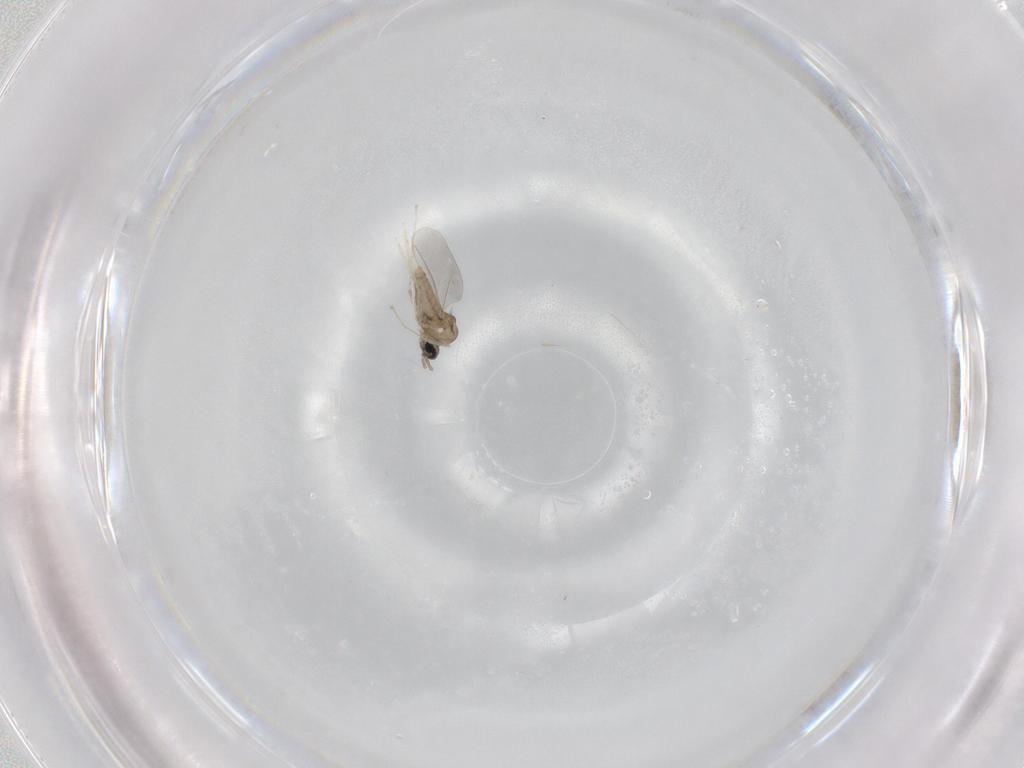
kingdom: Animalia
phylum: Arthropoda
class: Insecta
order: Diptera
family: Cecidomyiidae
